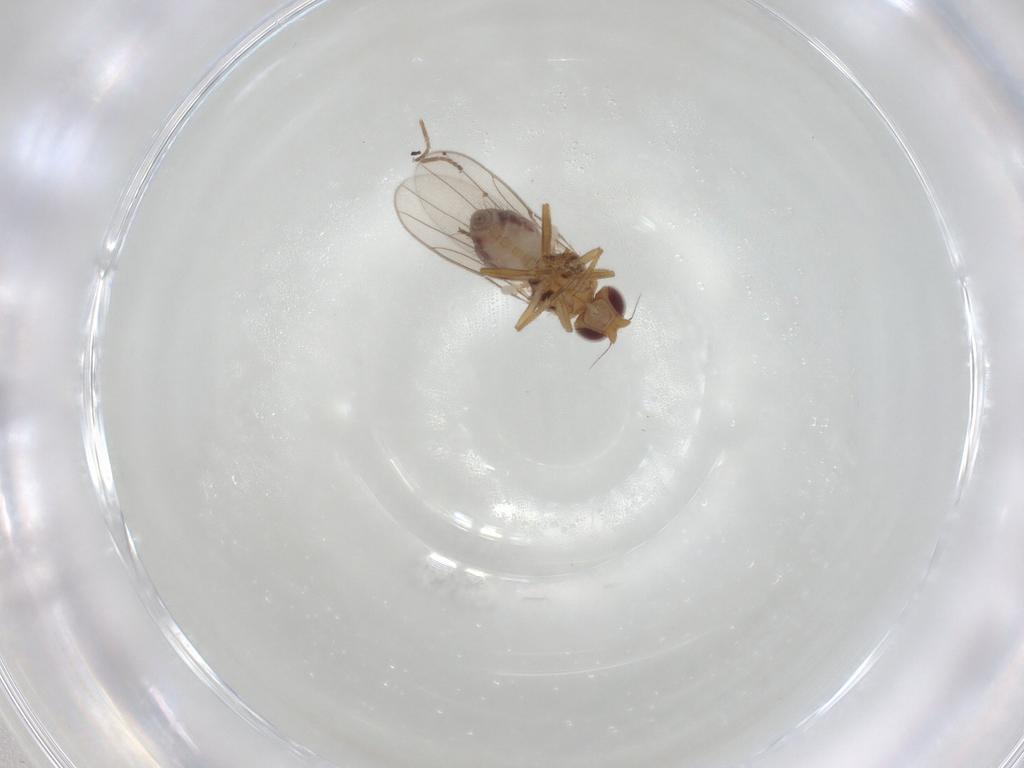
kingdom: Animalia
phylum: Arthropoda
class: Insecta
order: Diptera
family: Chloropidae
